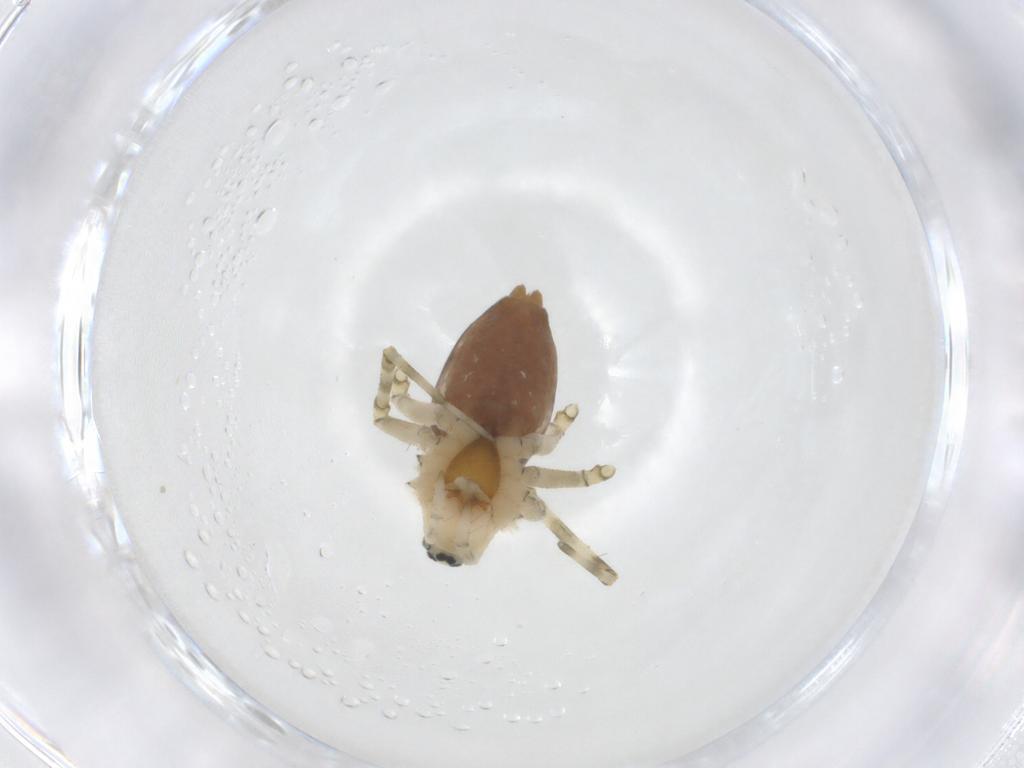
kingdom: Animalia
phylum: Arthropoda
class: Arachnida
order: Araneae
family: Linyphiidae
